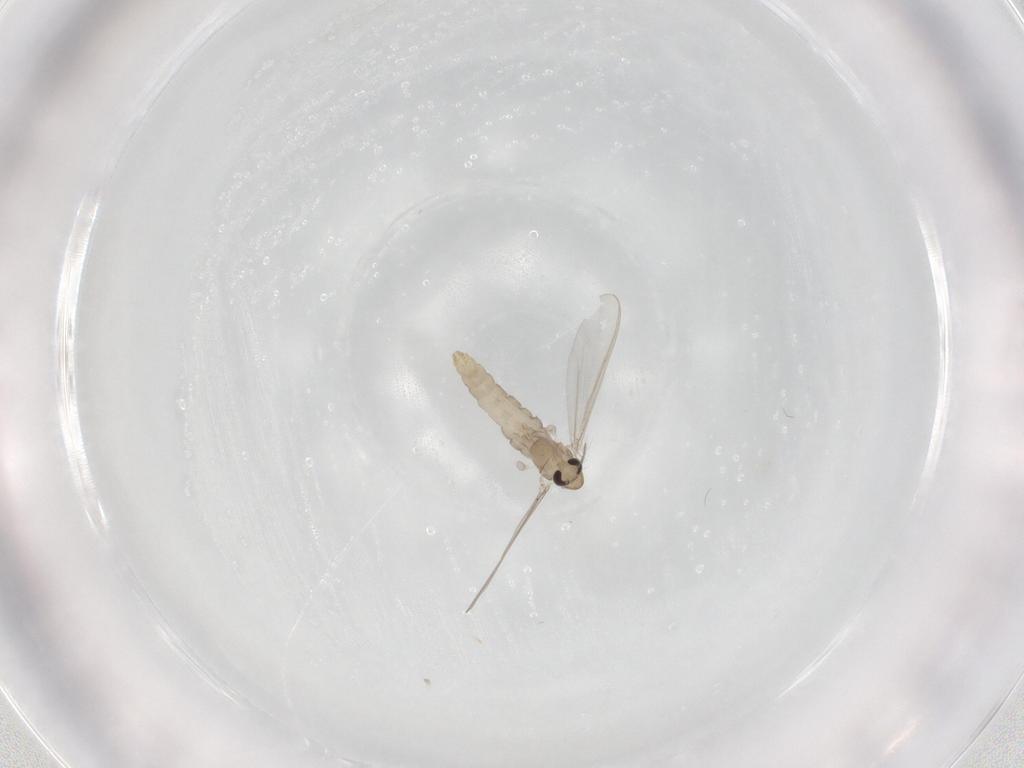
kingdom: Animalia
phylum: Arthropoda
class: Insecta
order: Diptera
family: Chironomidae
